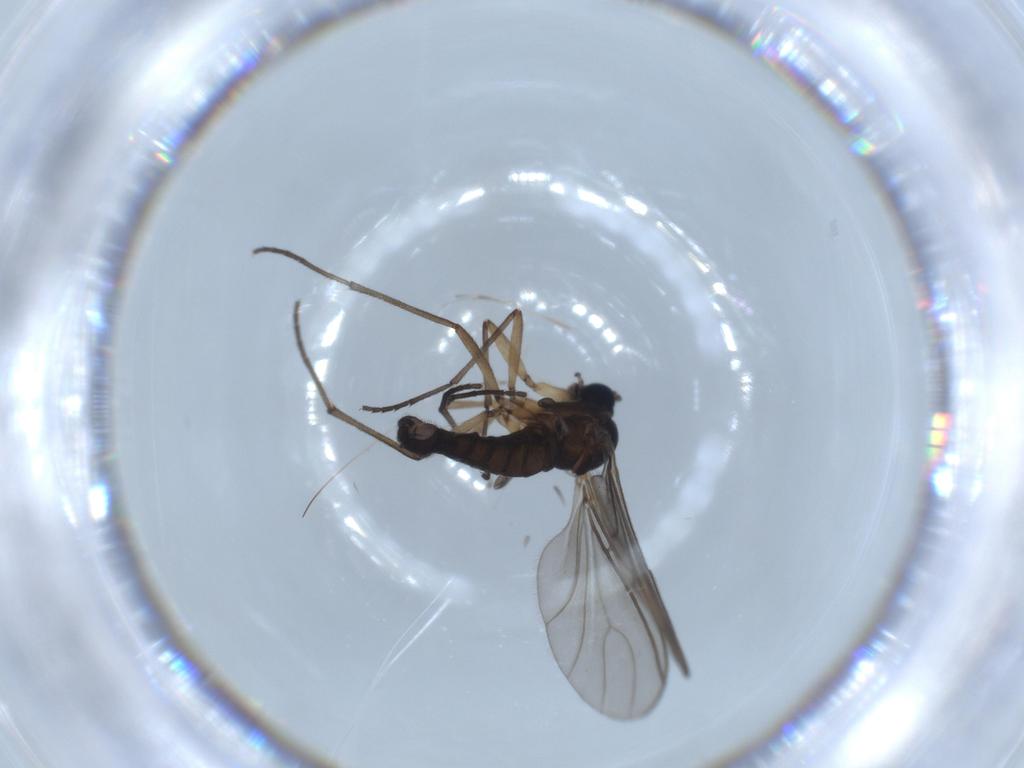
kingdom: Animalia
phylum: Arthropoda
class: Insecta
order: Diptera
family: Sciaridae
